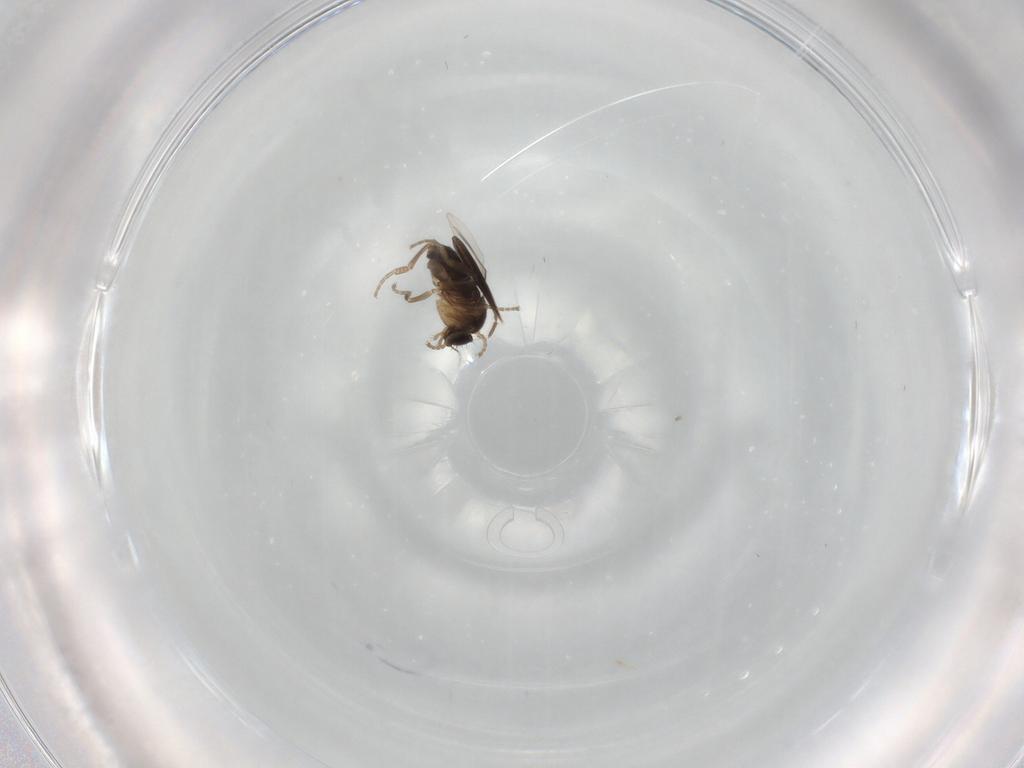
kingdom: Animalia
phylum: Arthropoda
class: Insecta
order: Diptera
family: Ceratopogonidae
